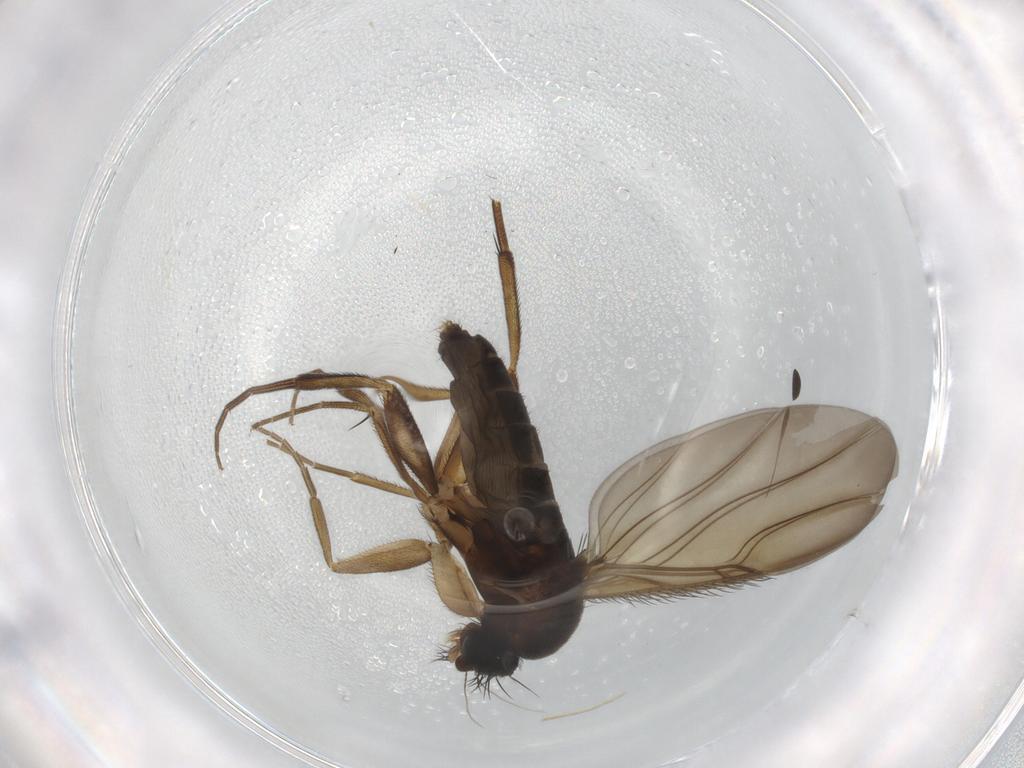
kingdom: Animalia
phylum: Arthropoda
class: Insecta
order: Diptera
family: Phoridae
